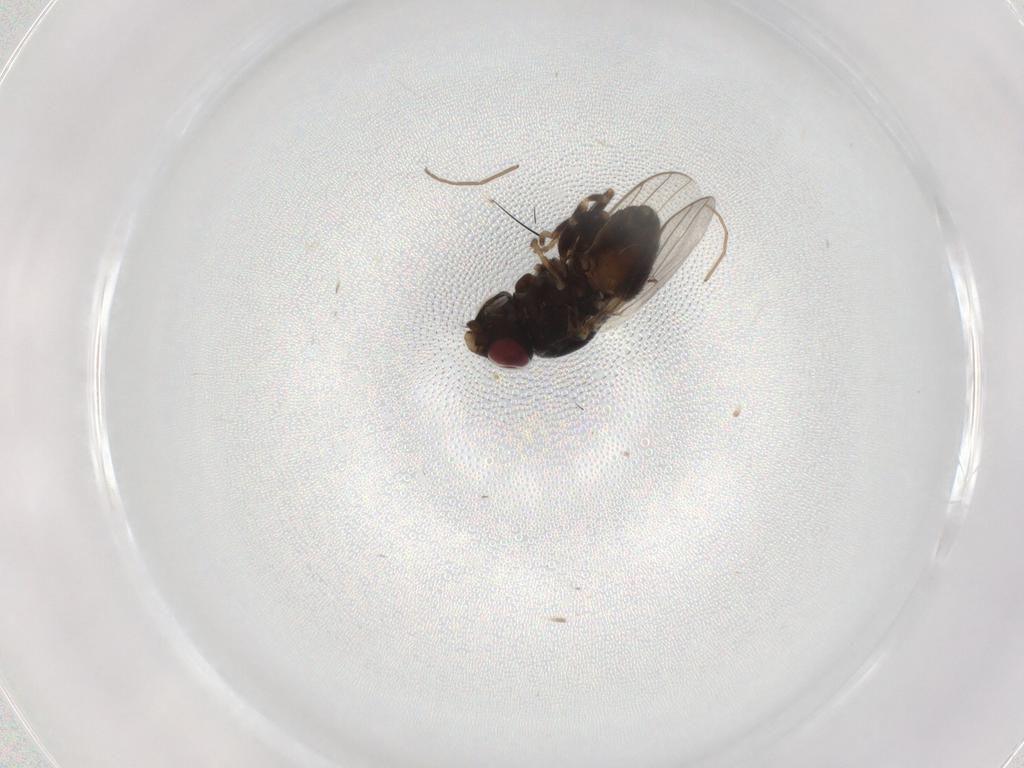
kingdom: Animalia
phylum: Arthropoda
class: Insecta
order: Diptera
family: Chloropidae
